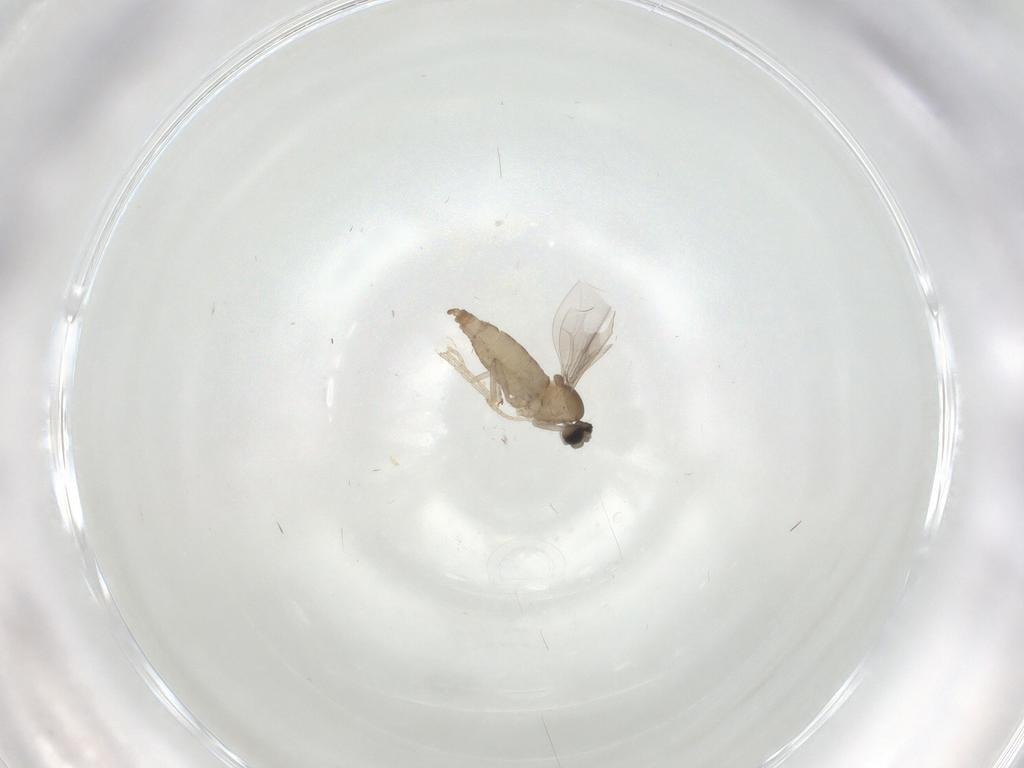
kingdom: Animalia
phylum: Arthropoda
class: Insecta
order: Diptera
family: Cecidomyiidae
